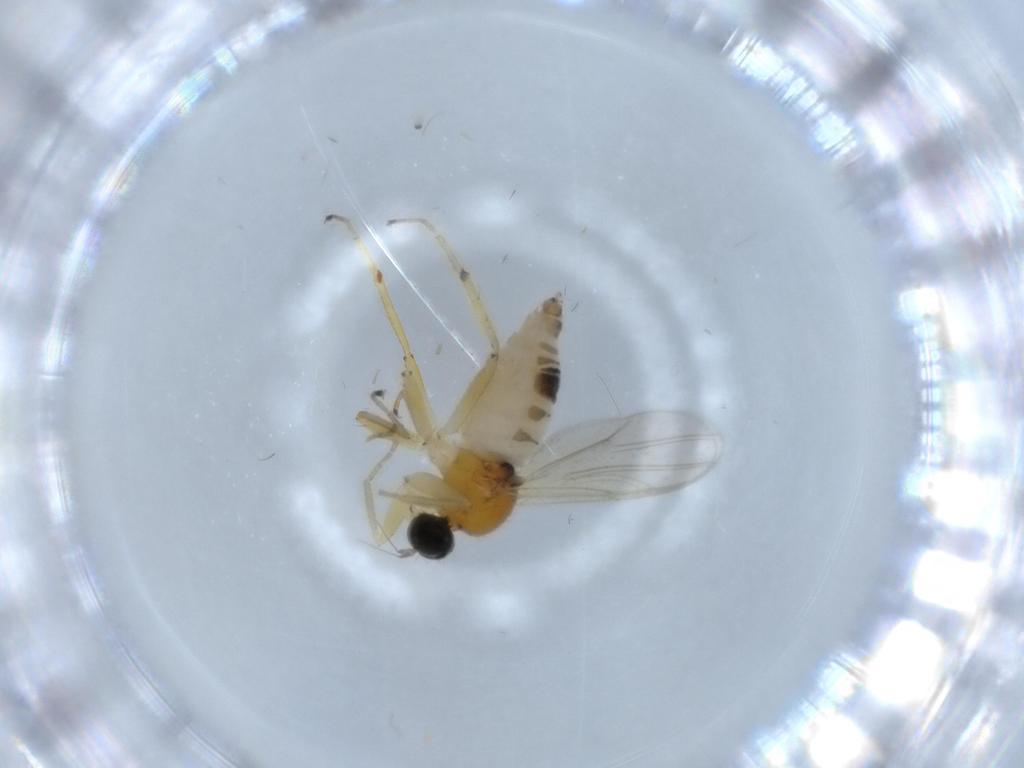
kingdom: Animalia
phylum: Arthropoda
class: Insecta
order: Diptera
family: Hybotidae
